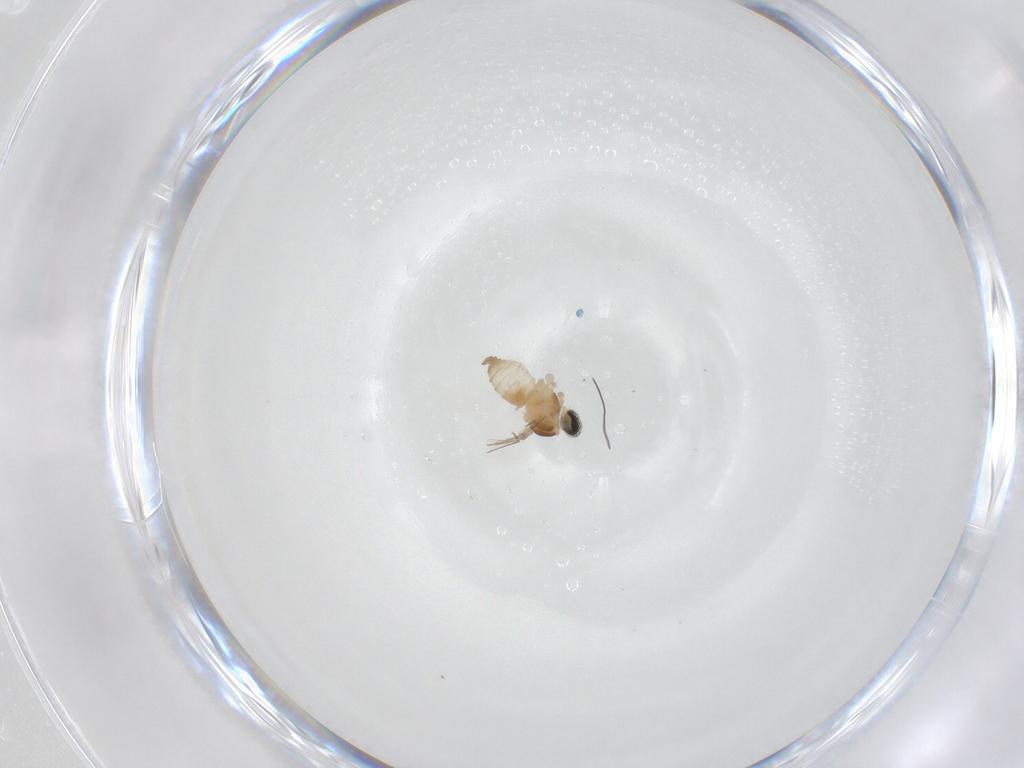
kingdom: Animalia
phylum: Arthropoda
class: Insecta
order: Diptera
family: Cecidomyiidae
